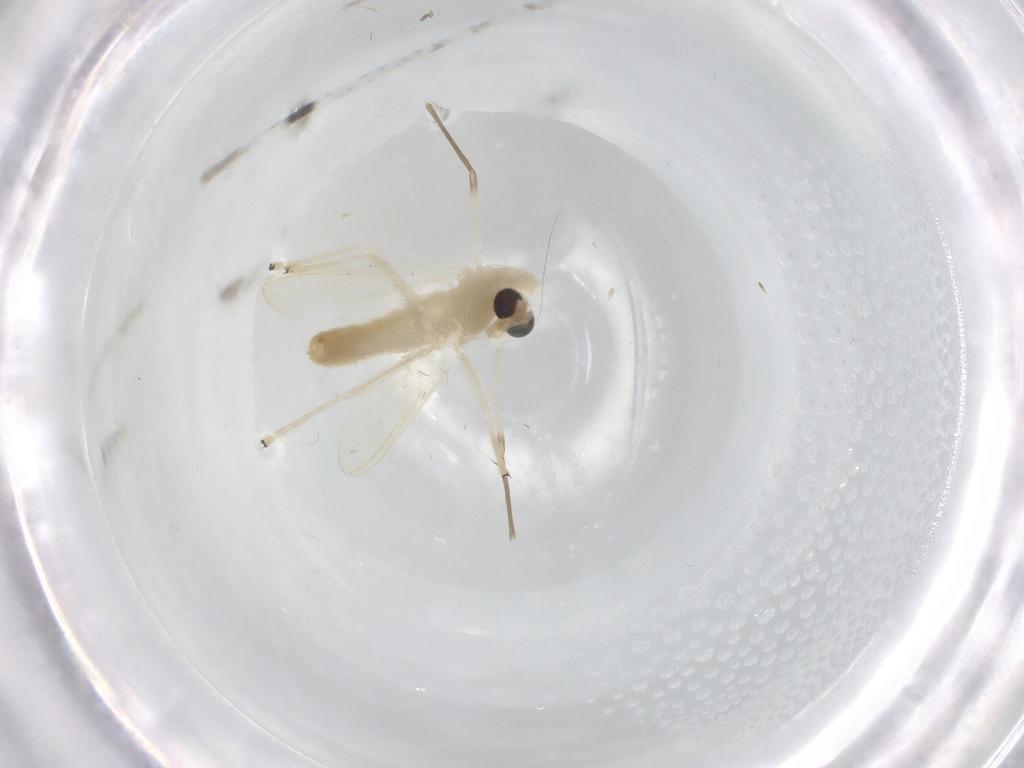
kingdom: Animalia
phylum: Arthropoda
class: Insecta
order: Diptera
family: Chironomidae
